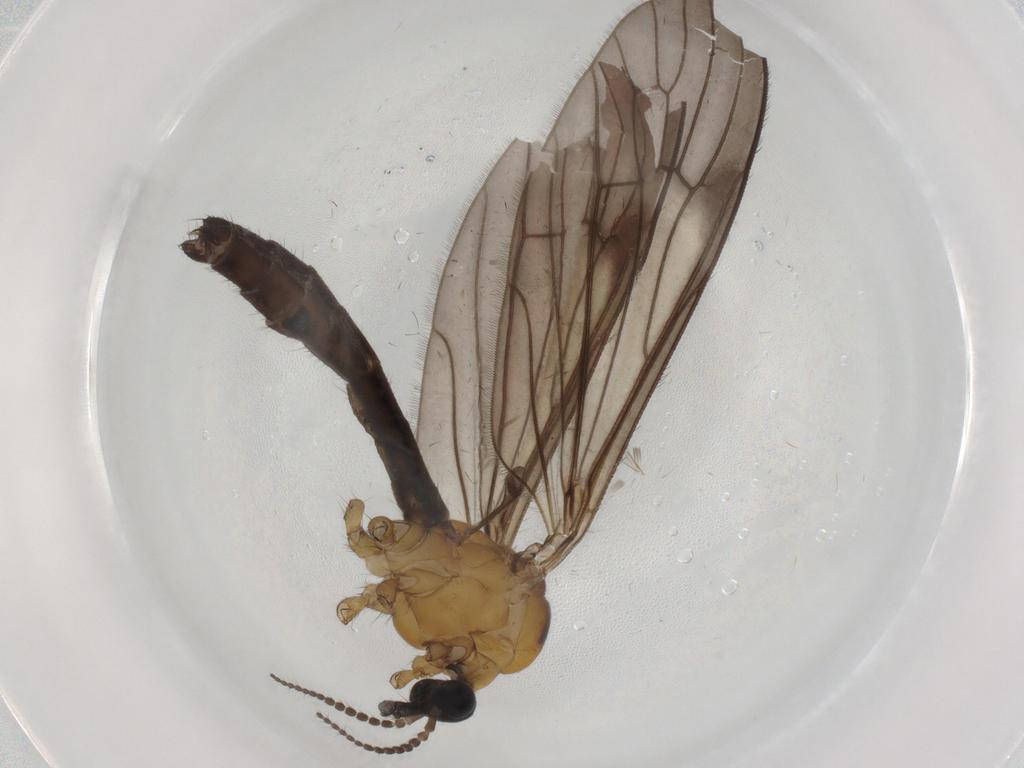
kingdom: Animalia
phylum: Arthropoda
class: Insecta
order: Diptera
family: Limoniidae
